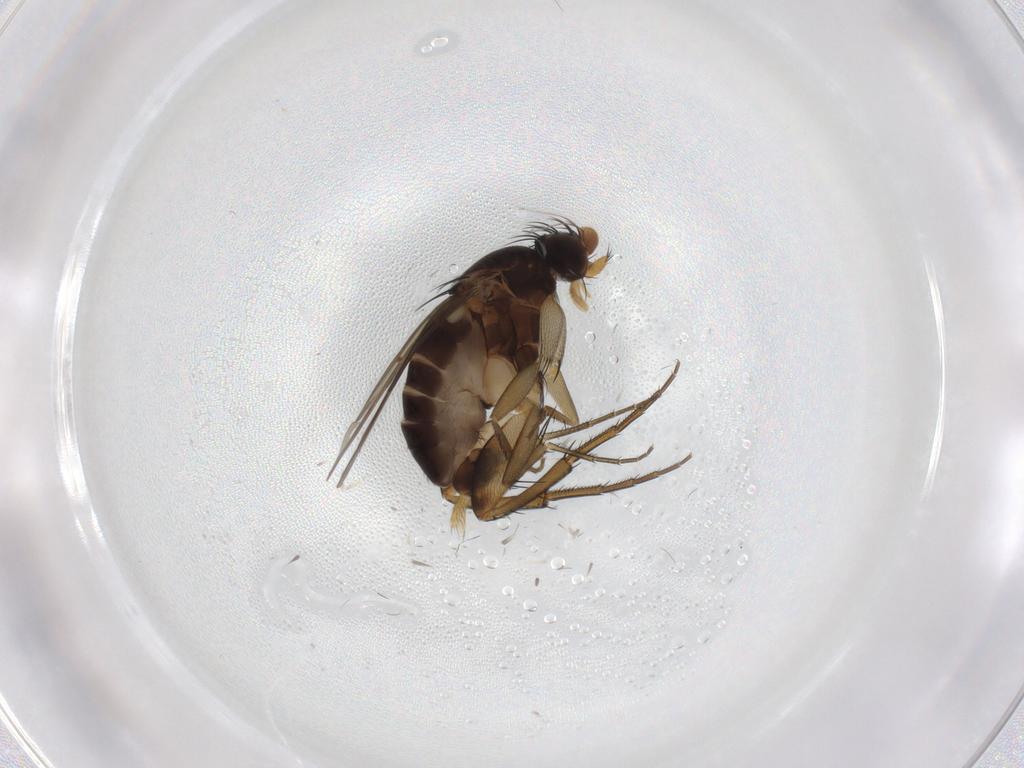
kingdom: Animalia
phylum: Arthropoda
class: Insecta
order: Diptera
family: Phoridae
